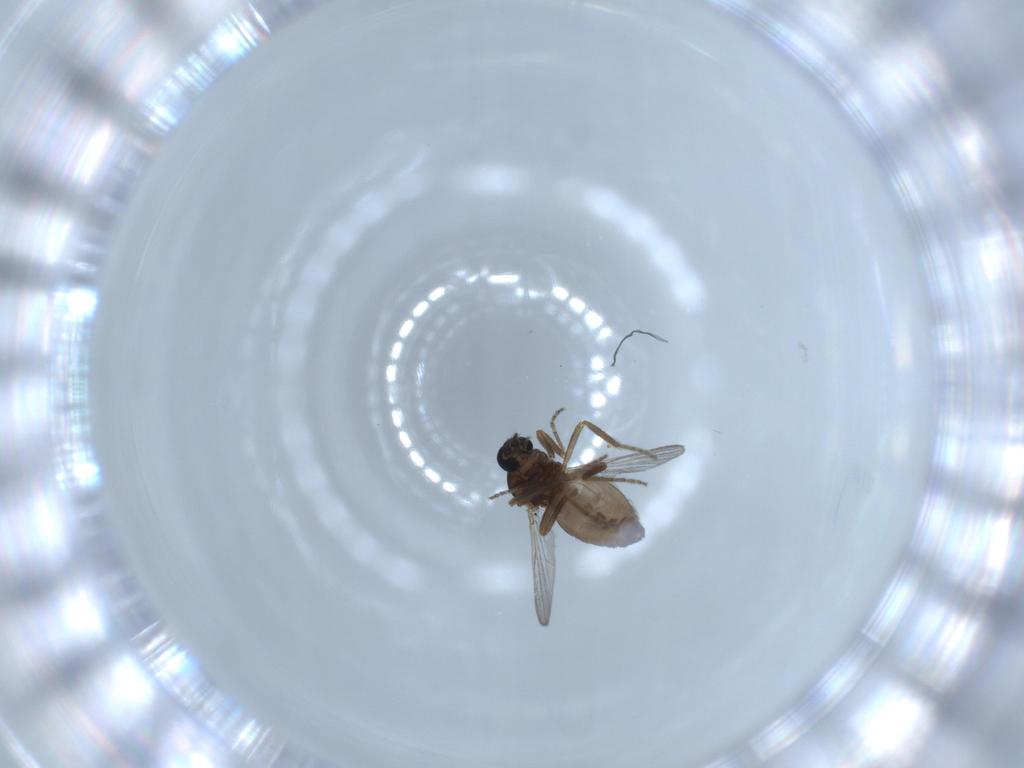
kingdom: Animalia
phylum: Arthropoda
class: Insecta
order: Diptera
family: Ceratopogonidae
